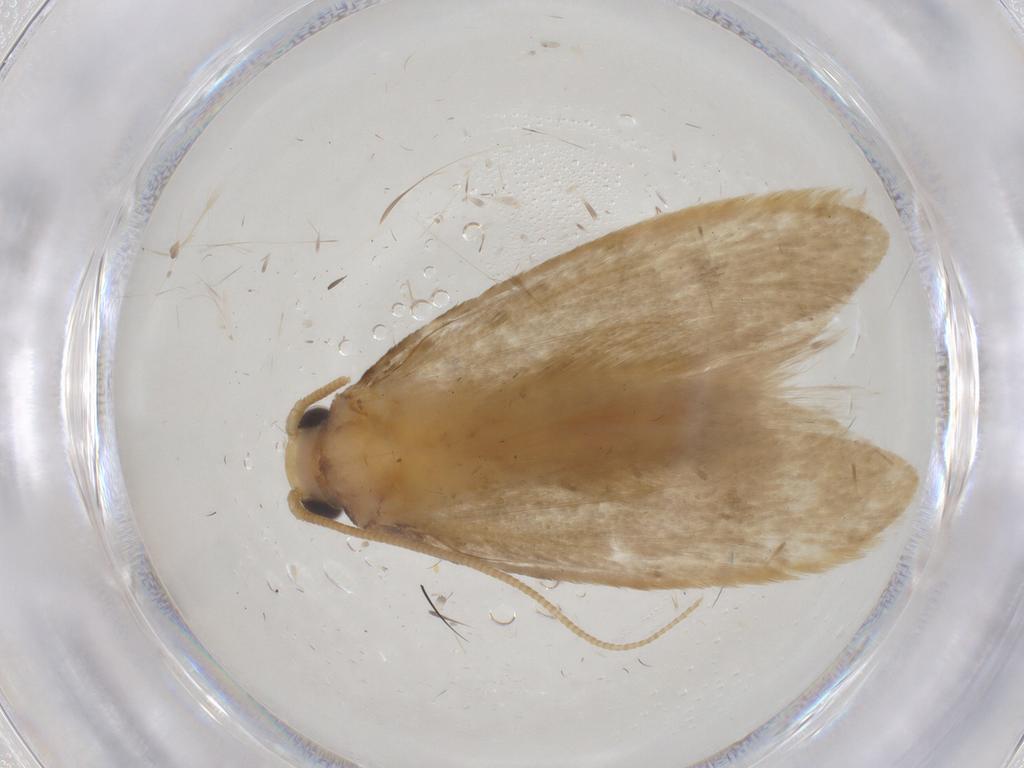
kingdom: Animalia
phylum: Arthropoda
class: Insecta
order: Lepidoptera
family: Tineidae
